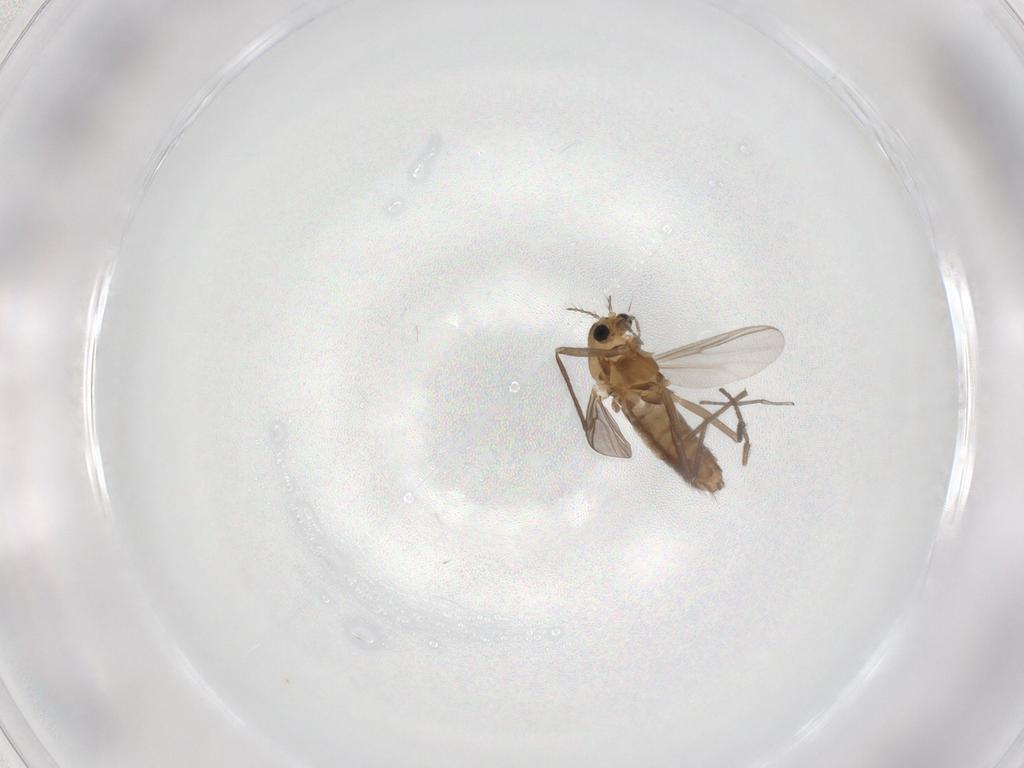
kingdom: Animalia
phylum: Arthropoda
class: Insecta
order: Diptera
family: Chironomidae
